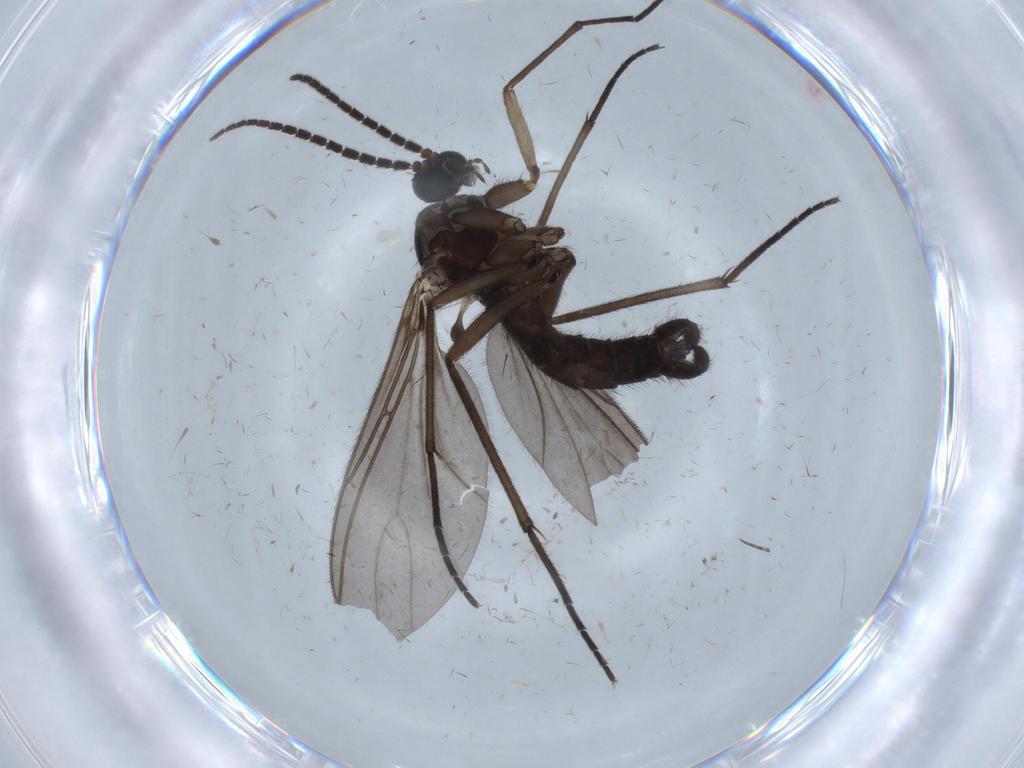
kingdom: Animalia
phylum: Arthropoda
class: Insecta
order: Diptera
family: Sciaridae
